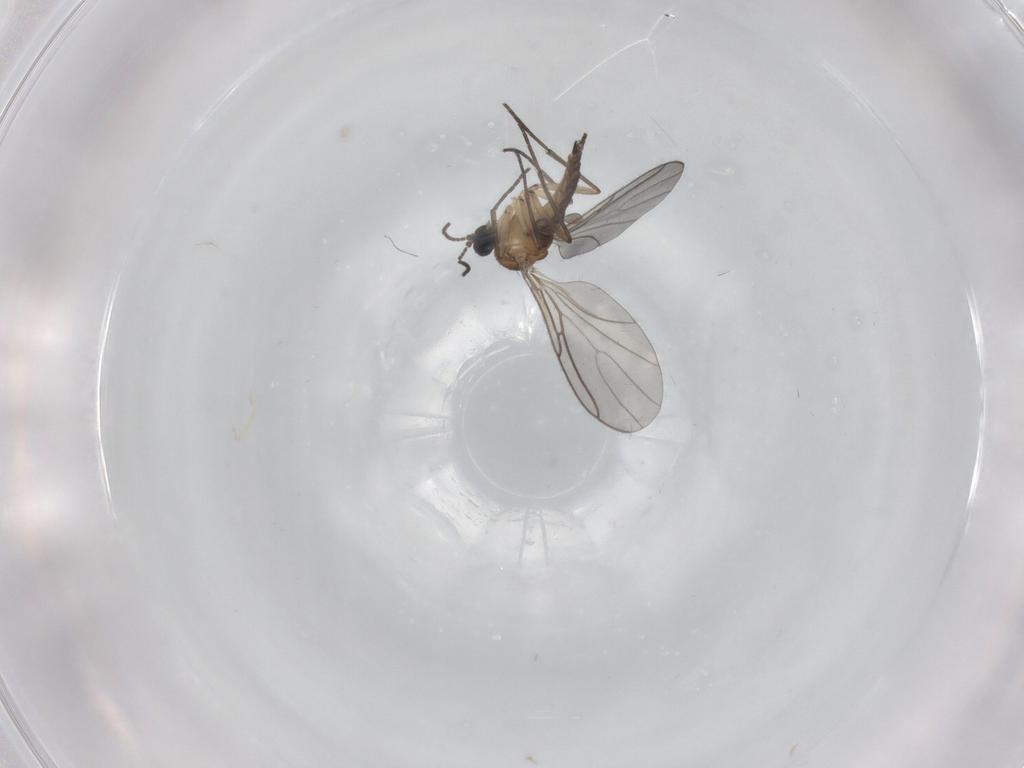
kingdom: Animalia
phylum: Arthropoda
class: Insecta
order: Diptera
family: Sciaridae
